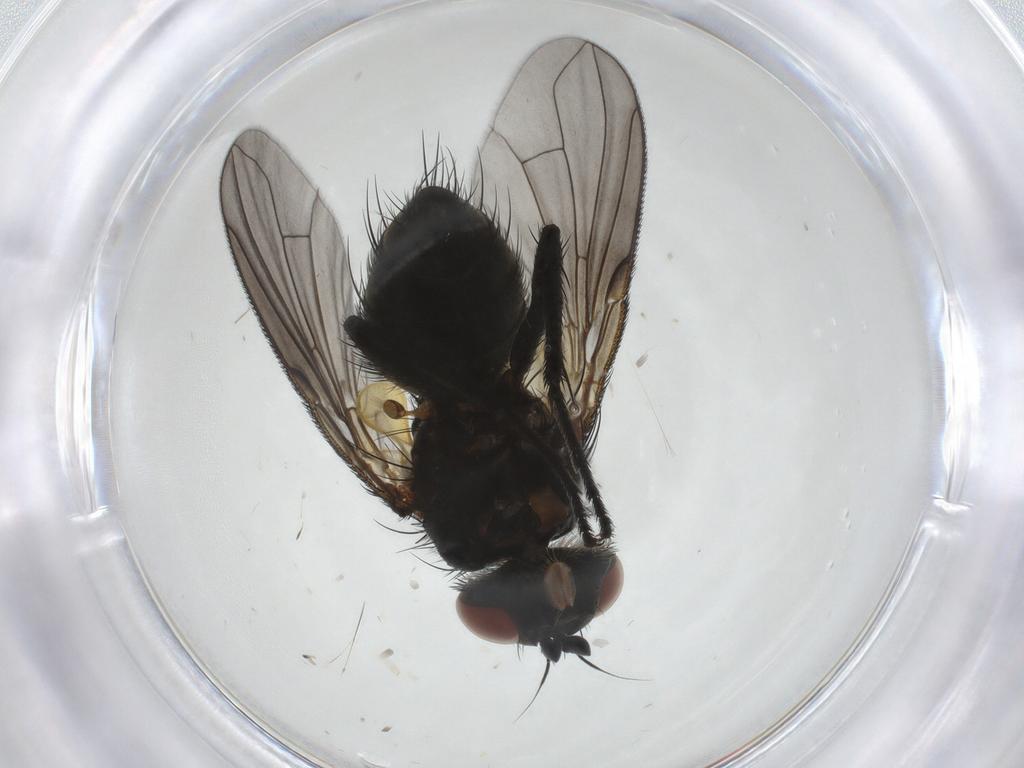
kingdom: Animalia
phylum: Arthropoda
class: Insecta
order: Diptera
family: Tachinidae
